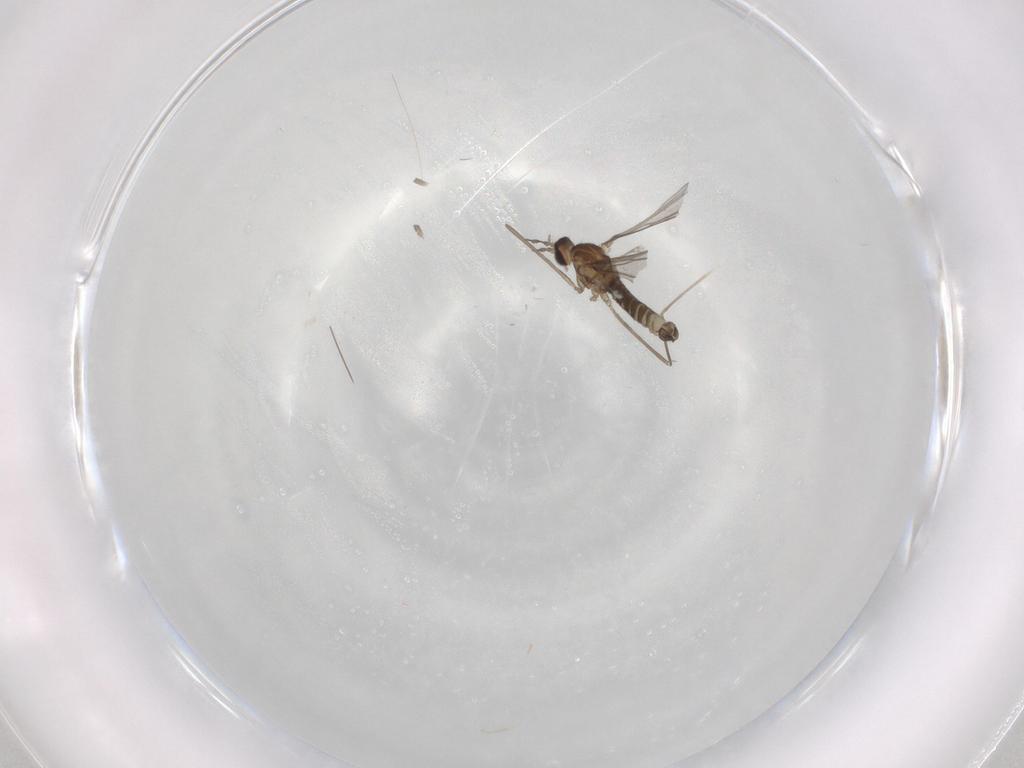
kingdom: Animalia
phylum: Arthropoda
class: Insecta
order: Diptera
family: Cecidomyiidae
